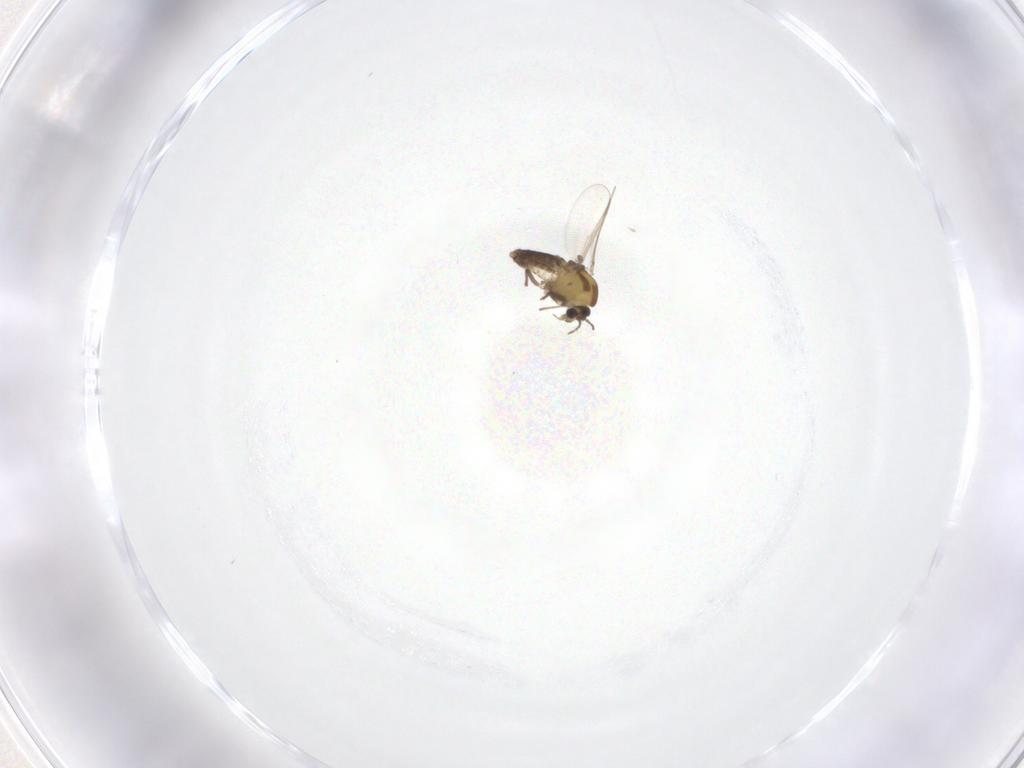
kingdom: Animalia
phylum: Arthropoda
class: Insecta
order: Diptera
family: Chironomidae
